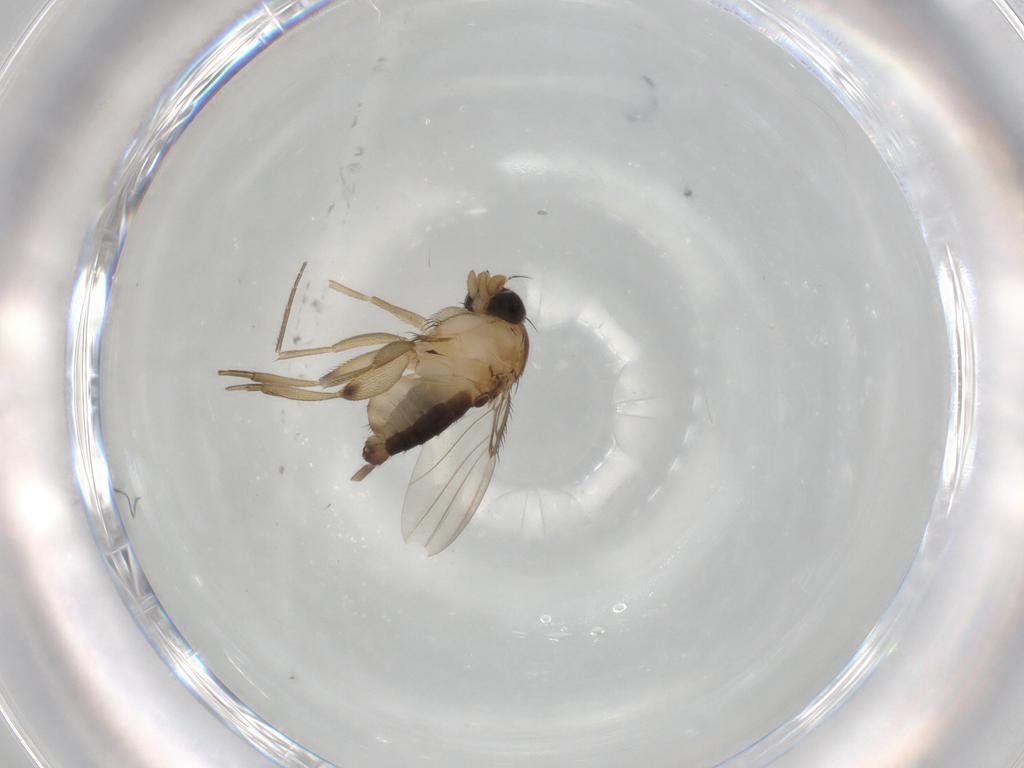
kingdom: Animalia
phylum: Arthropoda
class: Insecta
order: Diptera
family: Phoridae
